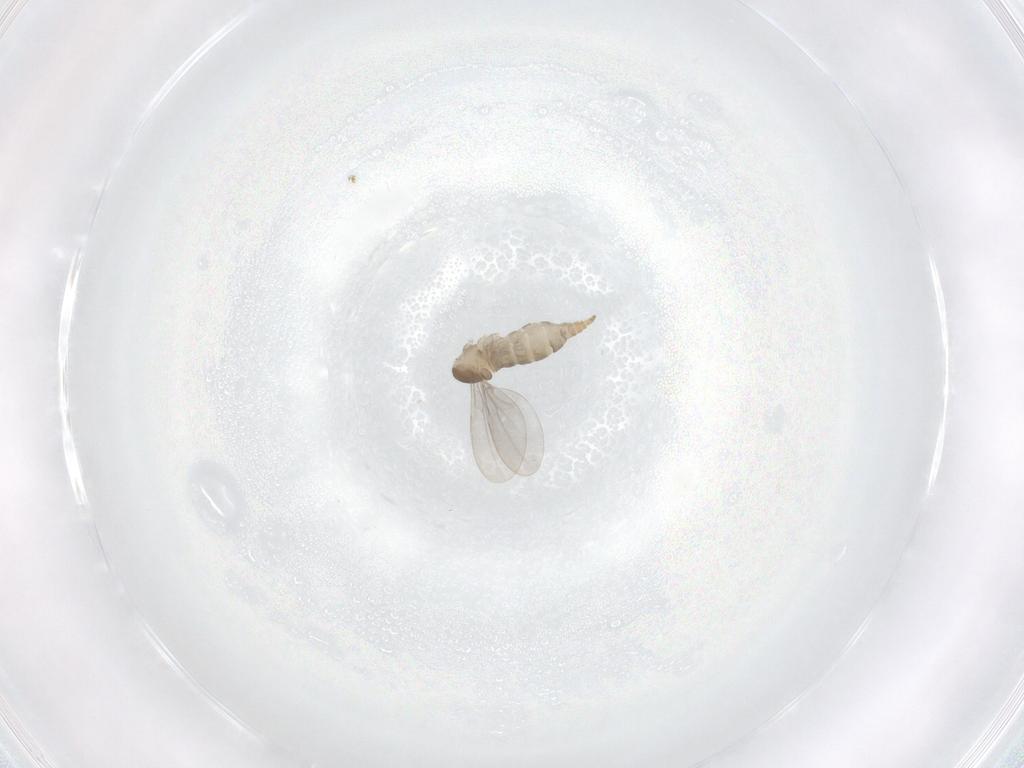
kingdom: Animalia
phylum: Arthropoda
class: Insecta
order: Diptera
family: Cecidomyiidae
